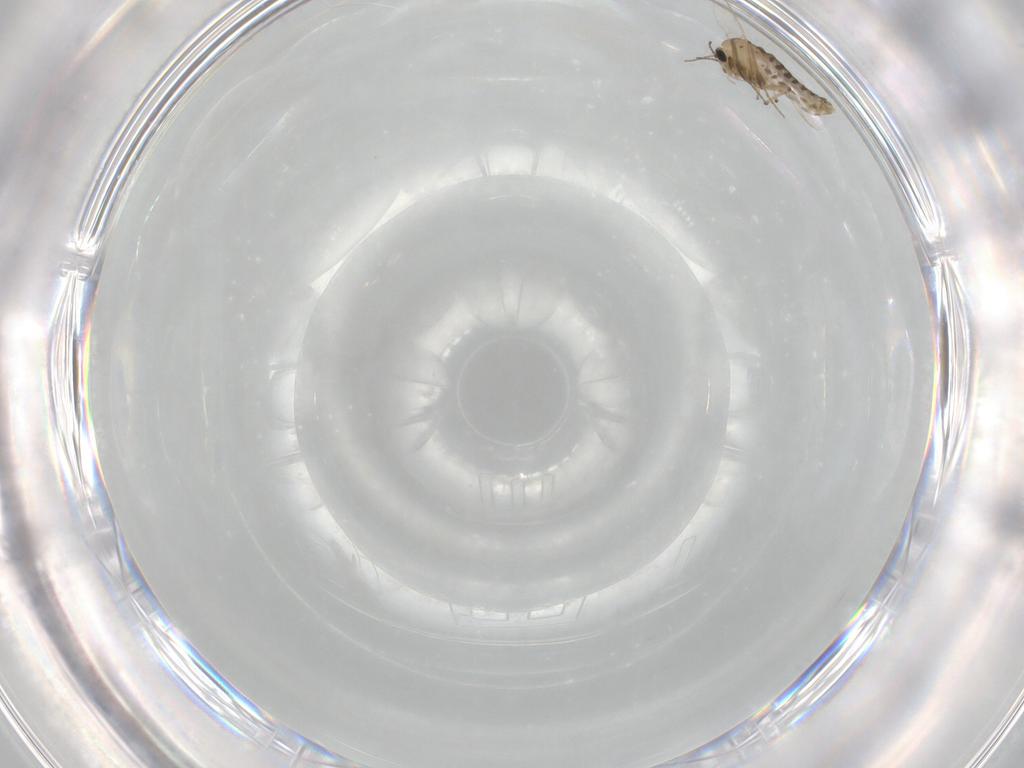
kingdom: Animalia
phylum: Arthropoda
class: Insecta
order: Diptera
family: Chironomidae
